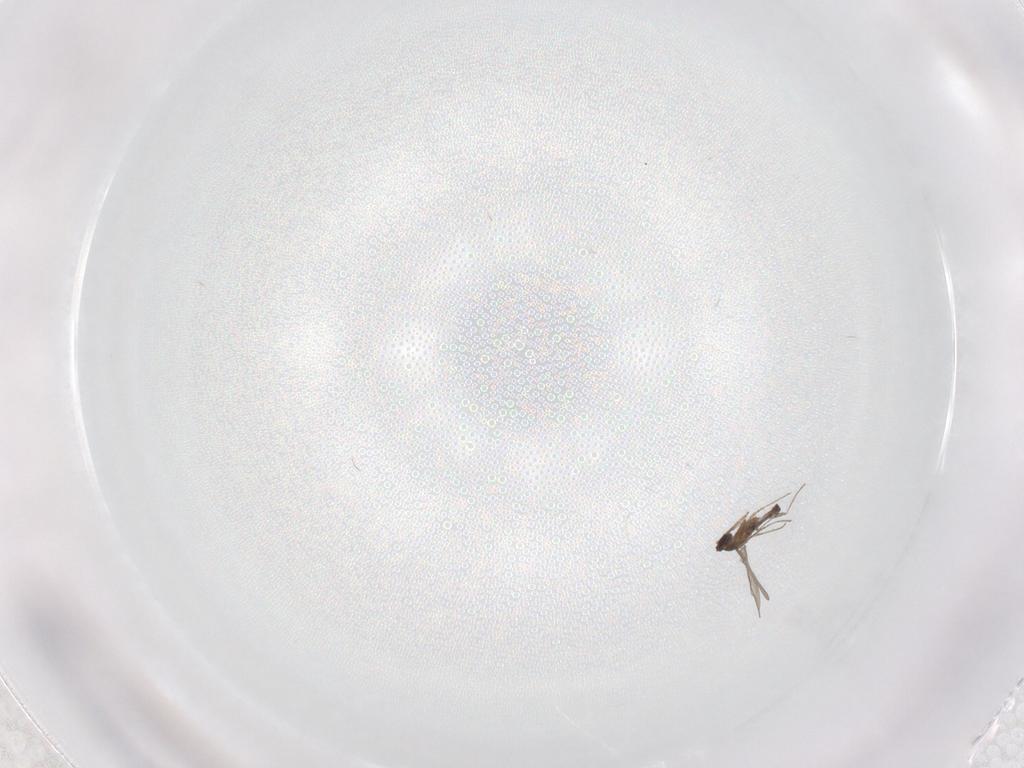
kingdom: Animalia
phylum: Arthropoda
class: Insecta
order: Diptera
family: Cecidomyiidae
